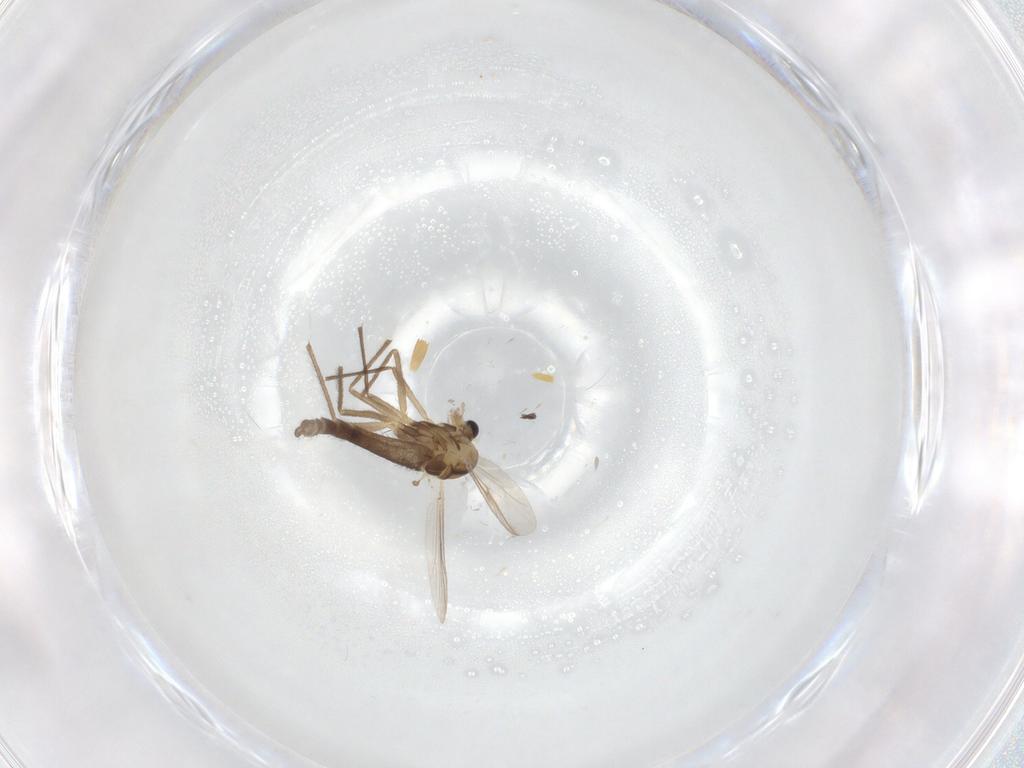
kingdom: Animalia
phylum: Arthropoda
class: Insecta
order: Diptera
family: Chironomidae
